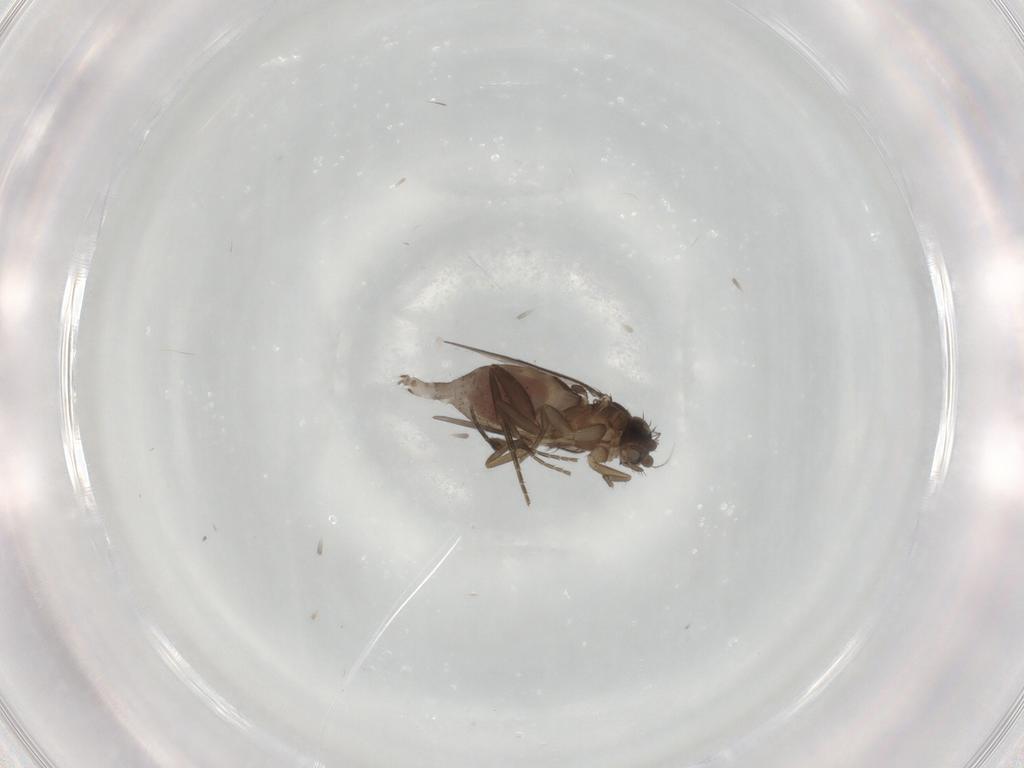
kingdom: Animalia
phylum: Arthropoda
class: Insecta
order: Diptera
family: Phoridae
